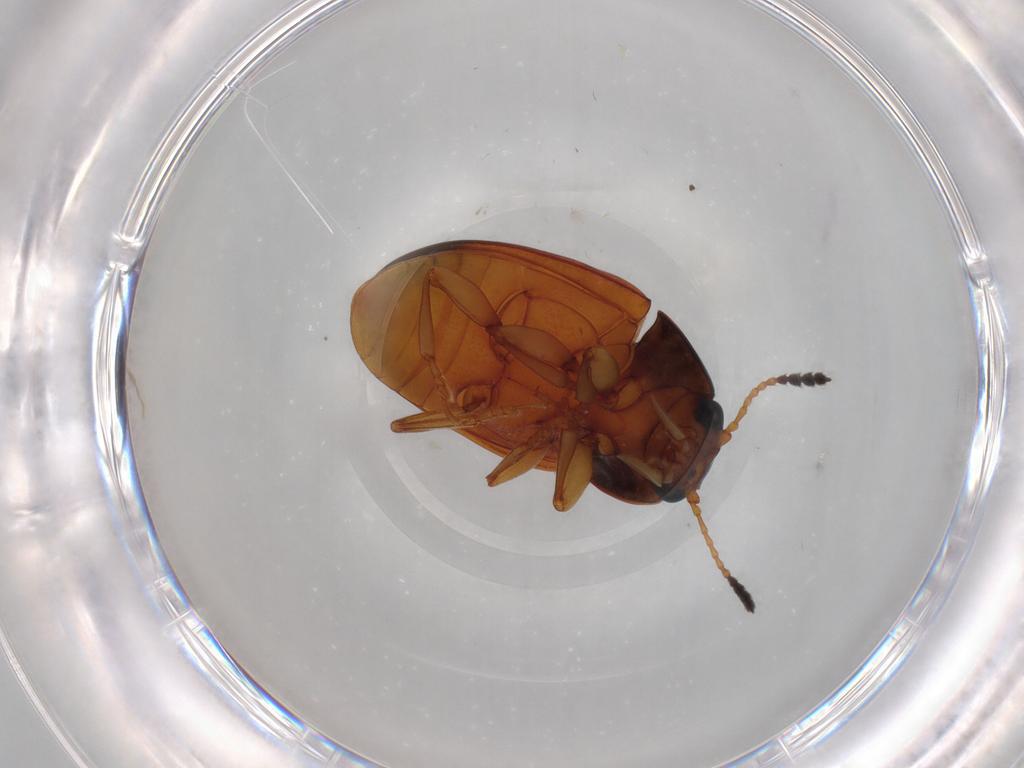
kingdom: Animalia
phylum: Arthropoda
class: Insecta
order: Coleoptera
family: Erotylidae
